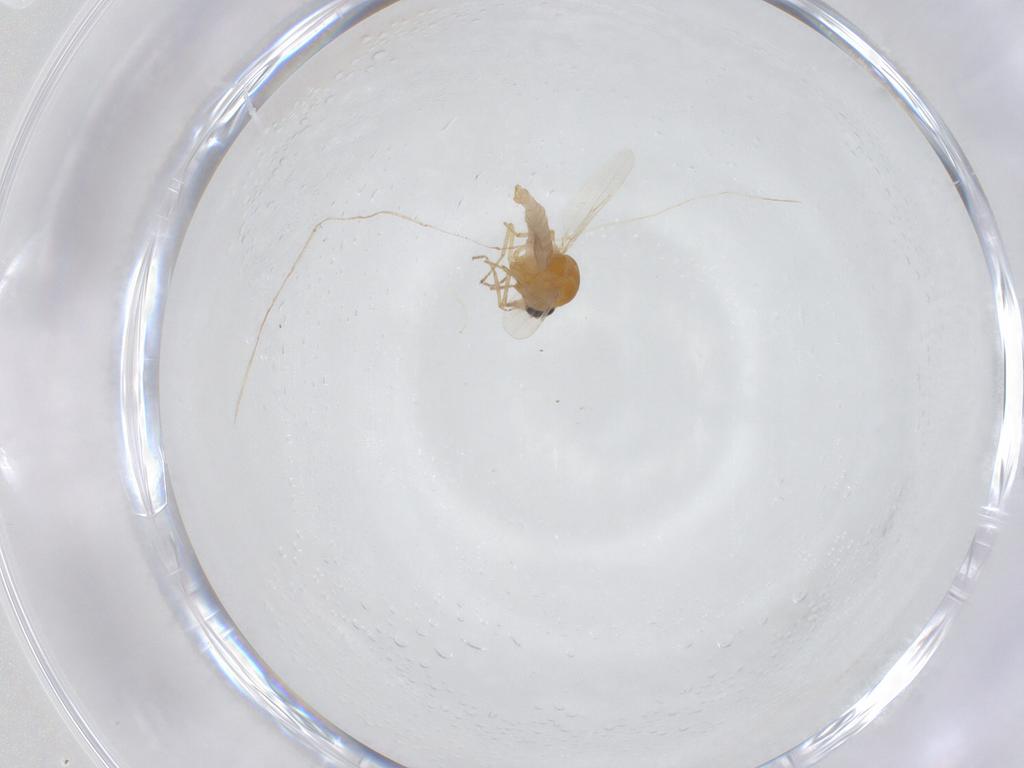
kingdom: Animalia
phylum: Arthropoda
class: Insecta
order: Diptera
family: Ceratopogonidae
